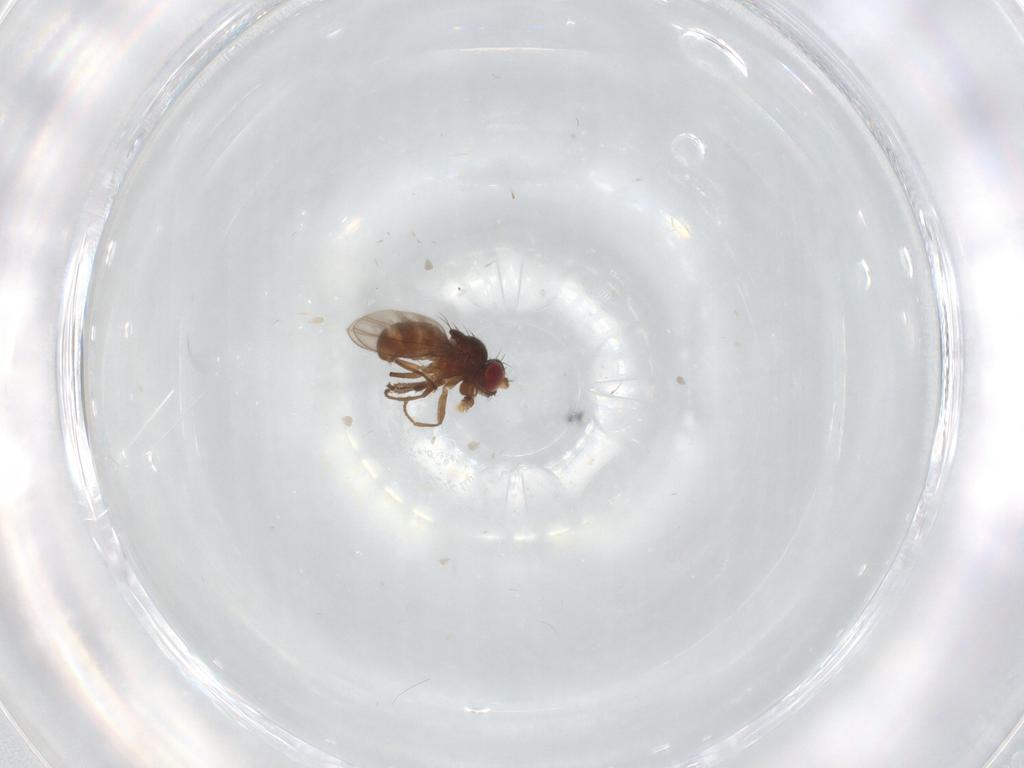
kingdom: Animalia
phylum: Arthropoda
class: Insecta
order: Diptera
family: Ephydridae
